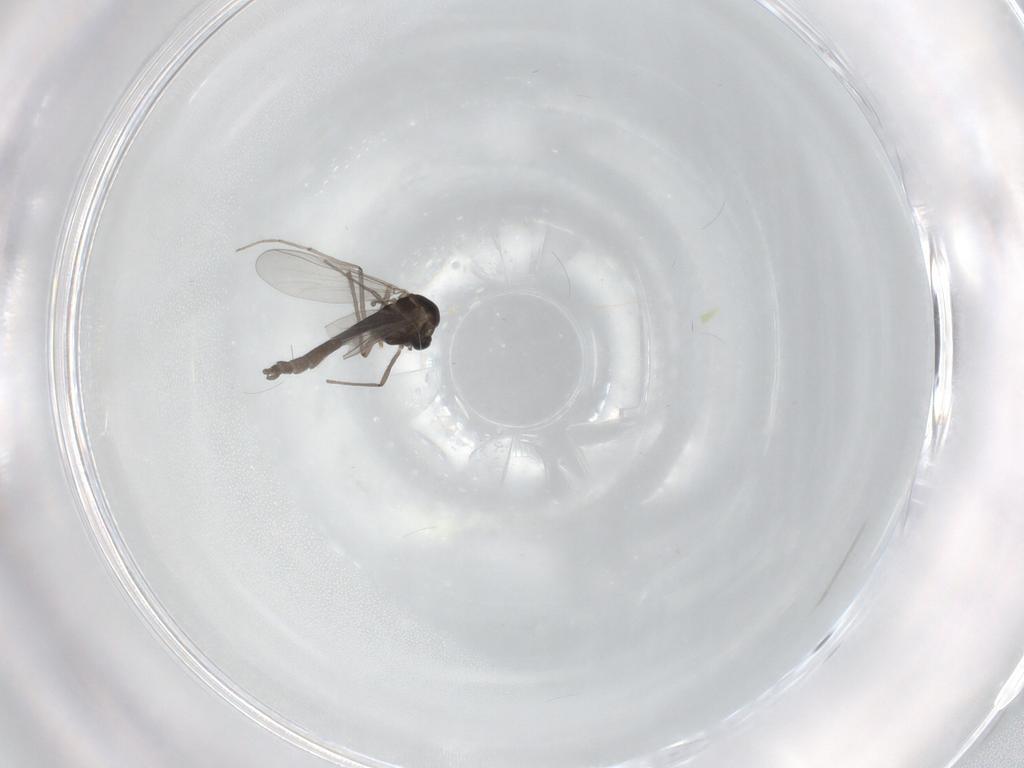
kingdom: Animalia
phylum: Arthropoda
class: Insecta
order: Diptera
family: Chironomidae
